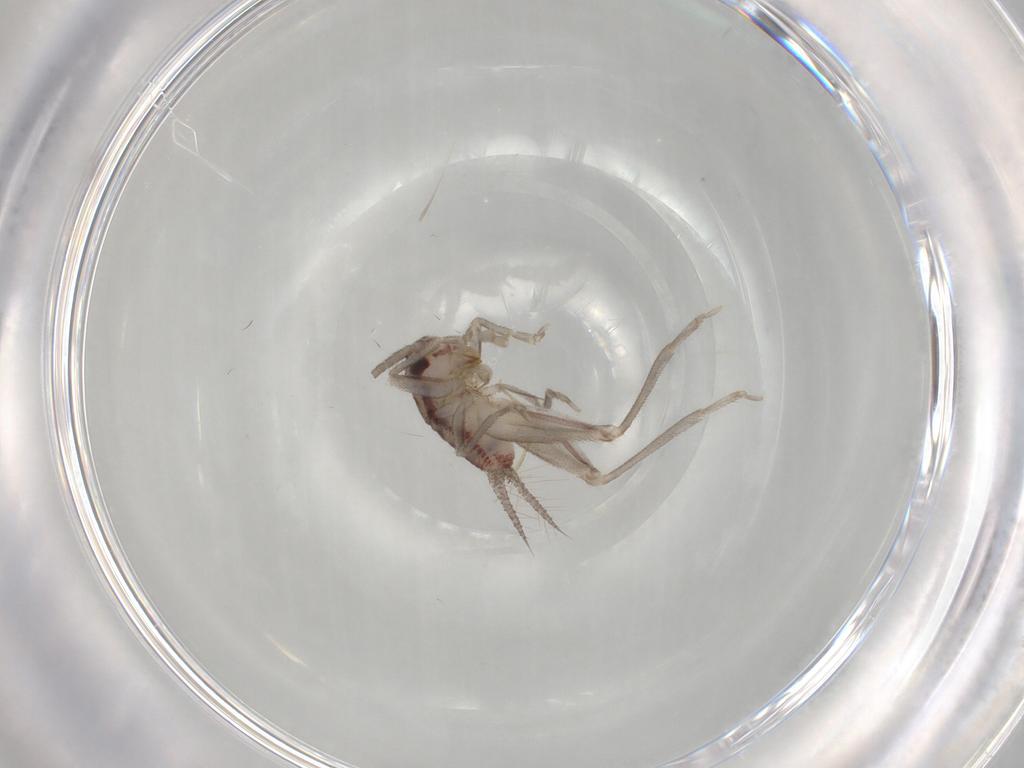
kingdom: Animalia
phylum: Arthropoda
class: Insecta
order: Orthoptera
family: Trigonidiidae
